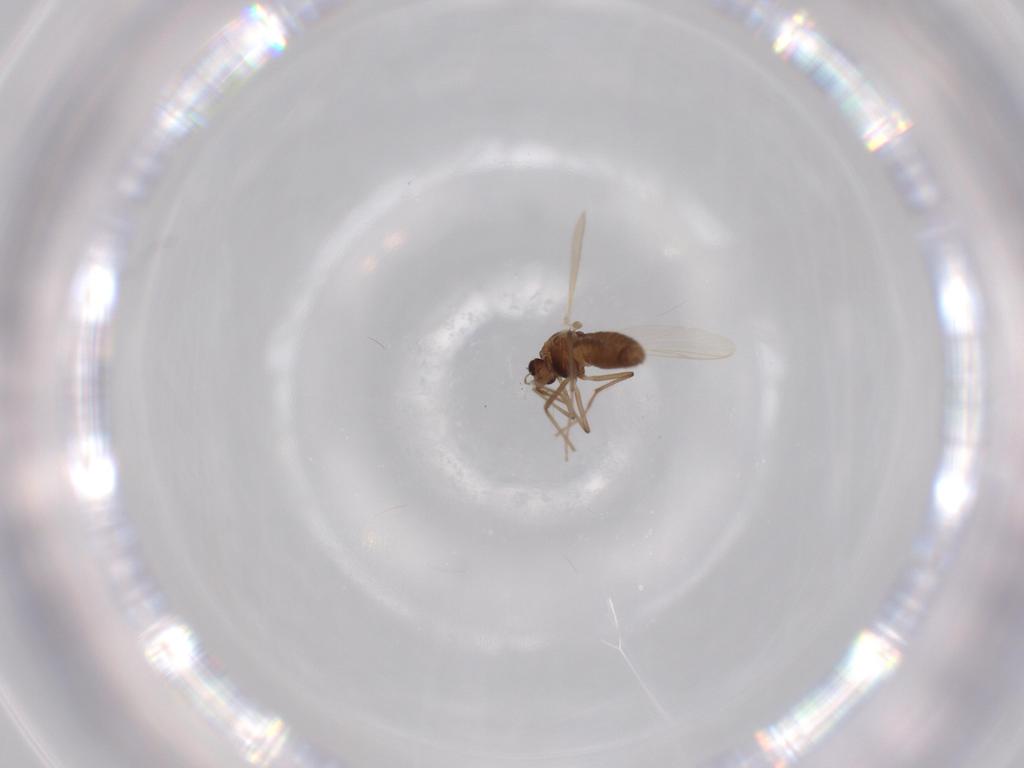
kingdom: Animalia
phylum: Arthropoda
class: Insecta
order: Diptera
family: Chironomidae
